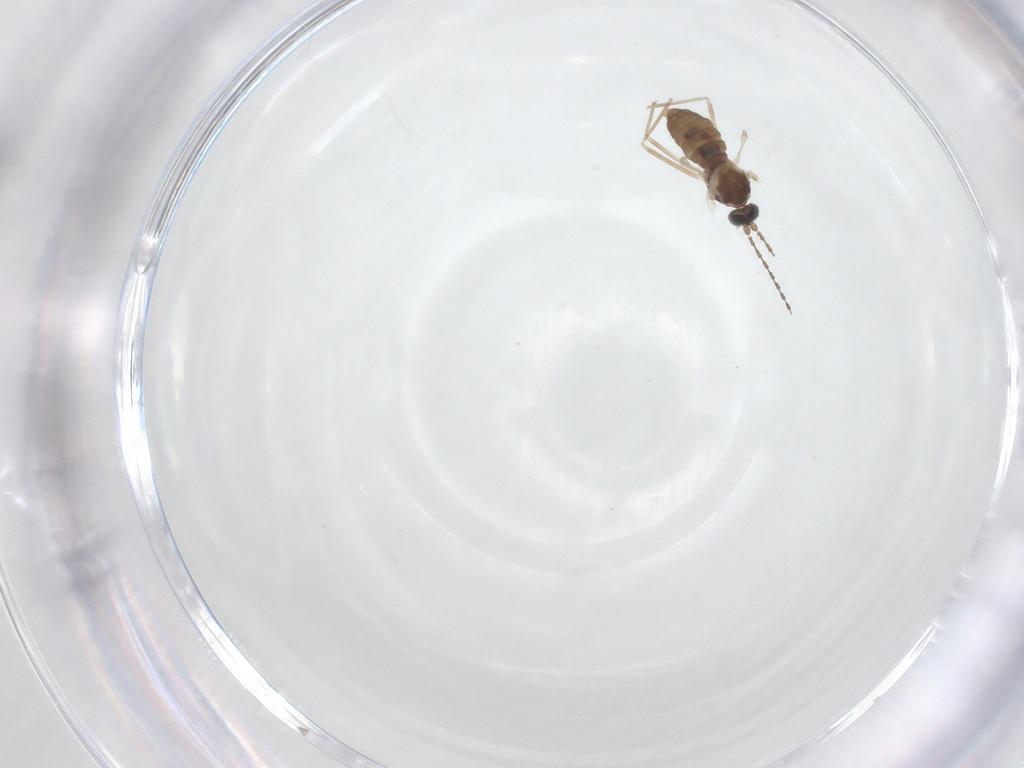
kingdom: Animalia
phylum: Arthropoda
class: Insecta
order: Diptera
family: Cecidomyiidae
